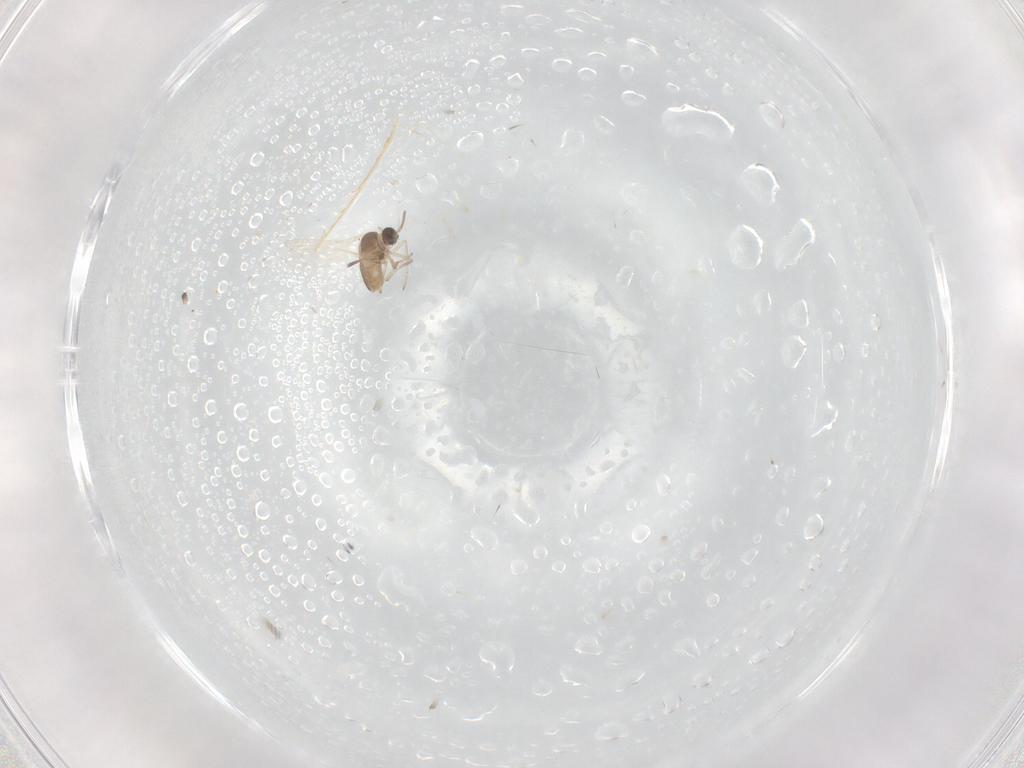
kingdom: Animalia
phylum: Arthropoda
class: Insecta
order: Diptera
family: Cecidomyiidae
